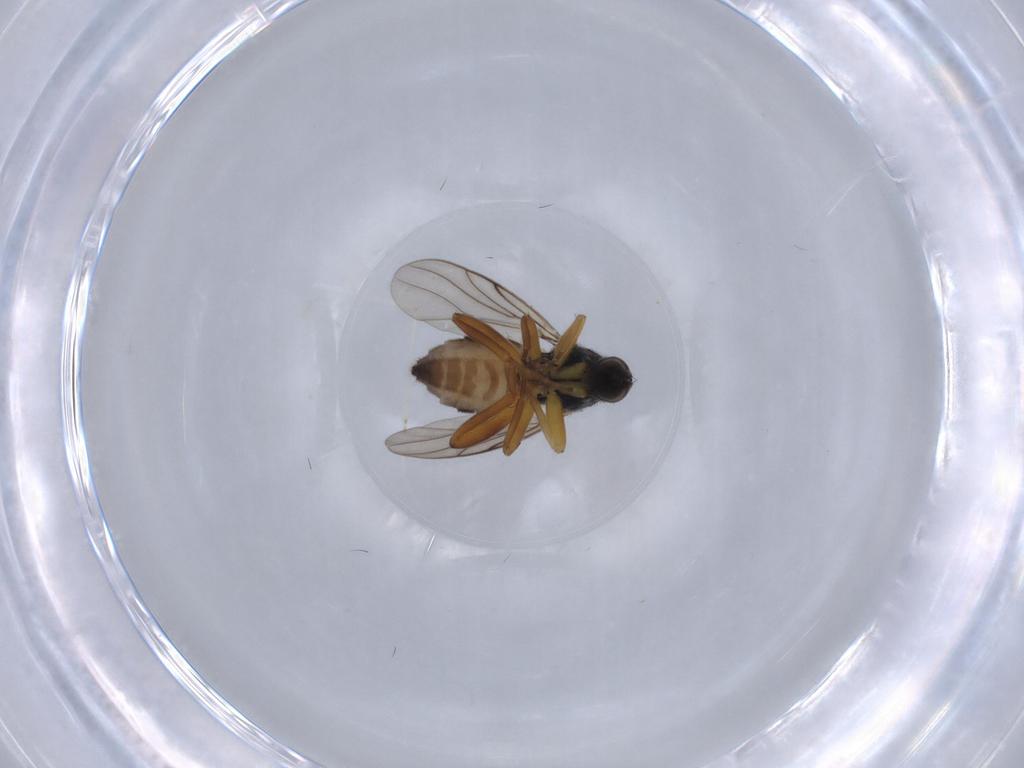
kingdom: Animalia
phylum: Arthropoda
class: Insecta
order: Diptera
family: Hybotidae
